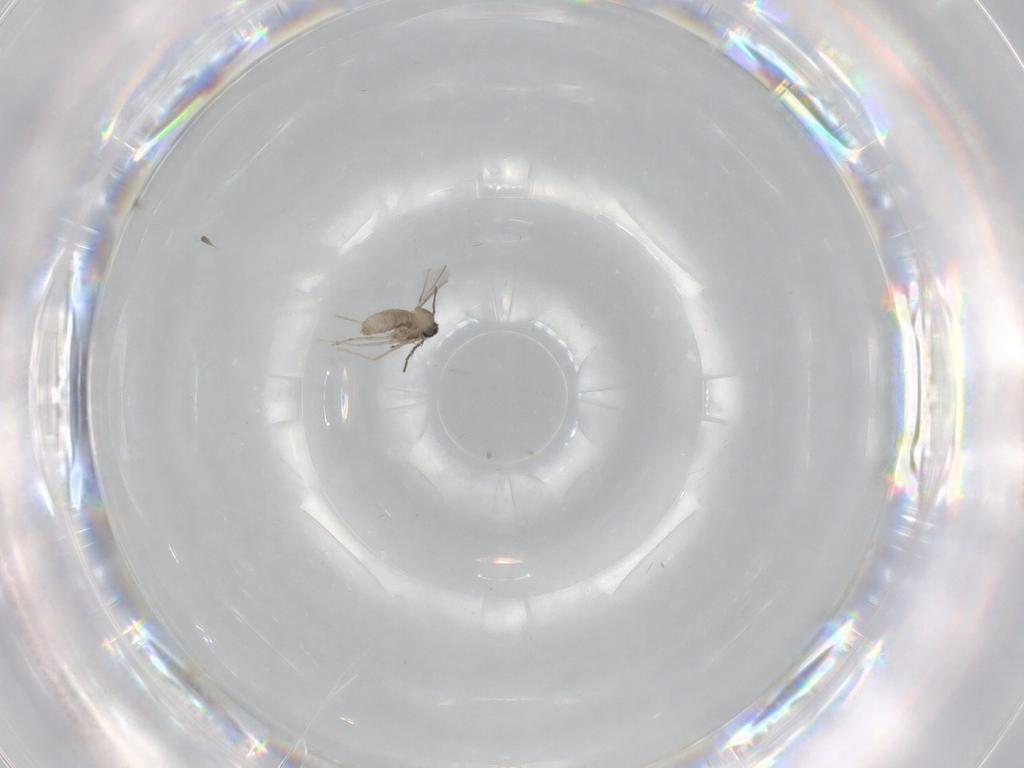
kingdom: Animalia
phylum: Arthropoda
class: Insecta
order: Diptera
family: Cecidomyiidae
